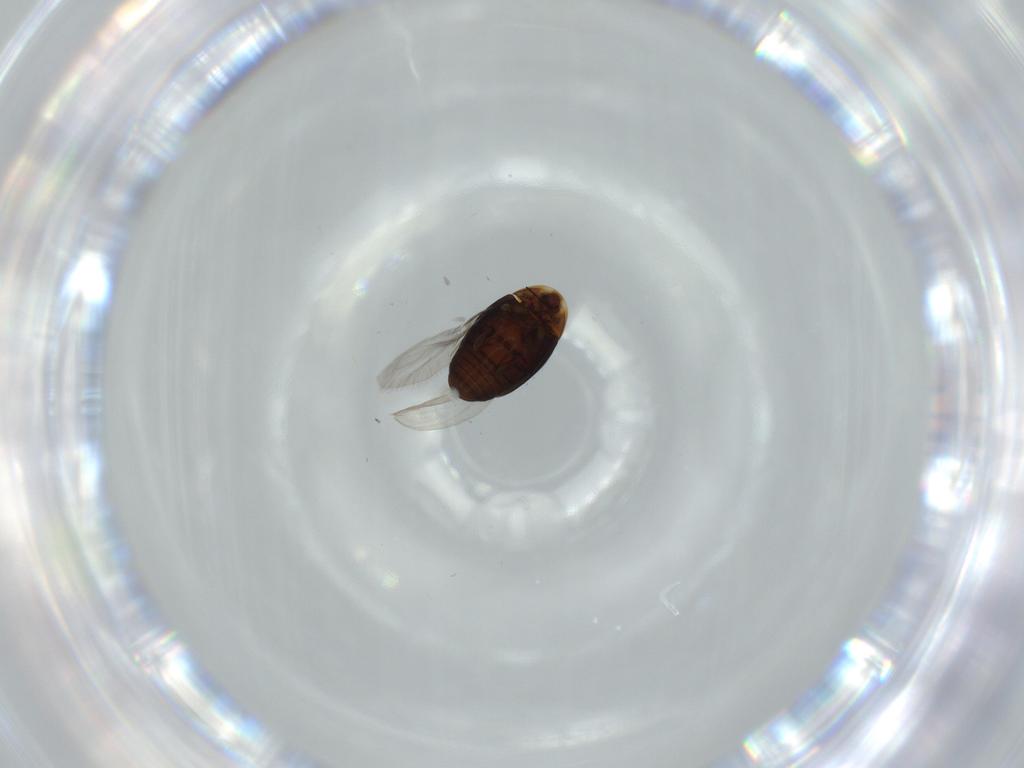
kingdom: Animalia
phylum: Arthropoda
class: Insecta
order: Coleoptera
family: Corylophidae
